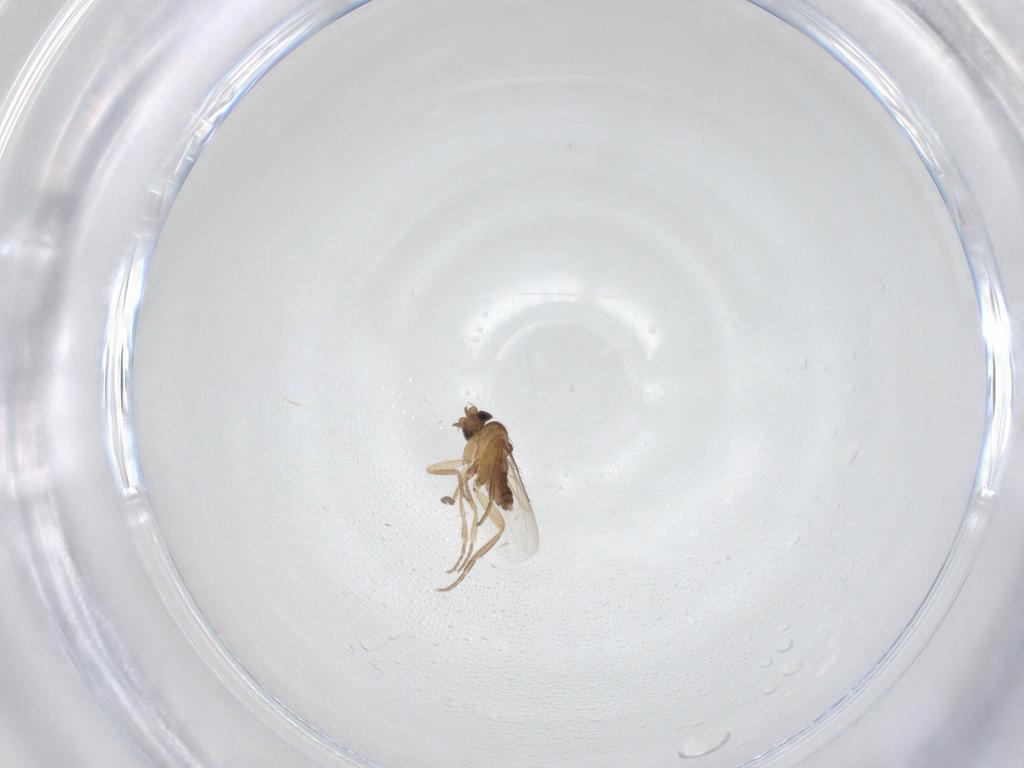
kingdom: Animalia
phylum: Arthropoda
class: Insecta
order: Diptera
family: Phoridae
